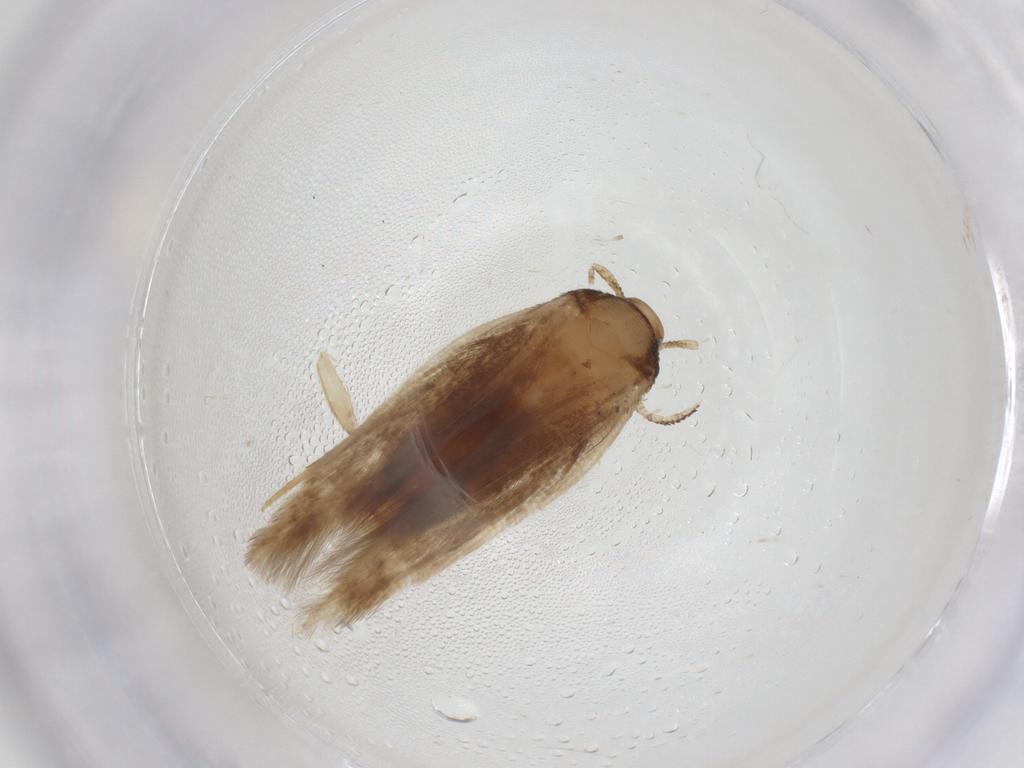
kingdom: Animalia
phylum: Arthropoda
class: Insecta
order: Lepidoptera
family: Gelechiidae
